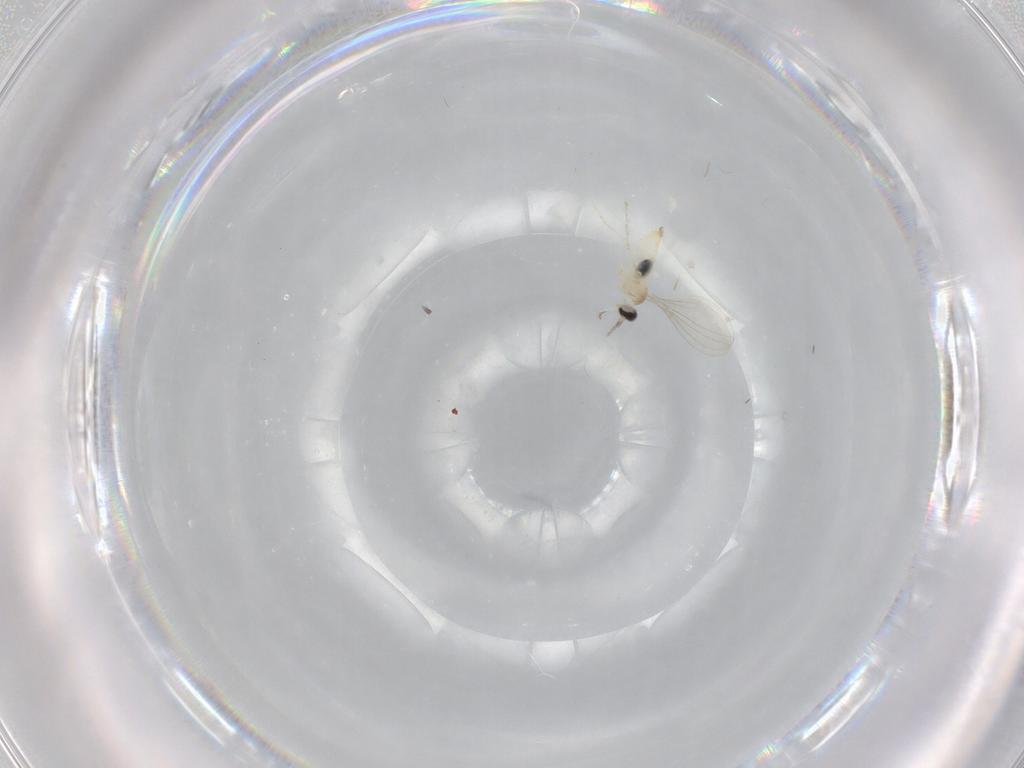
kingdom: Animalia
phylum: Arthropoda
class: Insecta
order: Diptera
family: Cecidomyiidae
